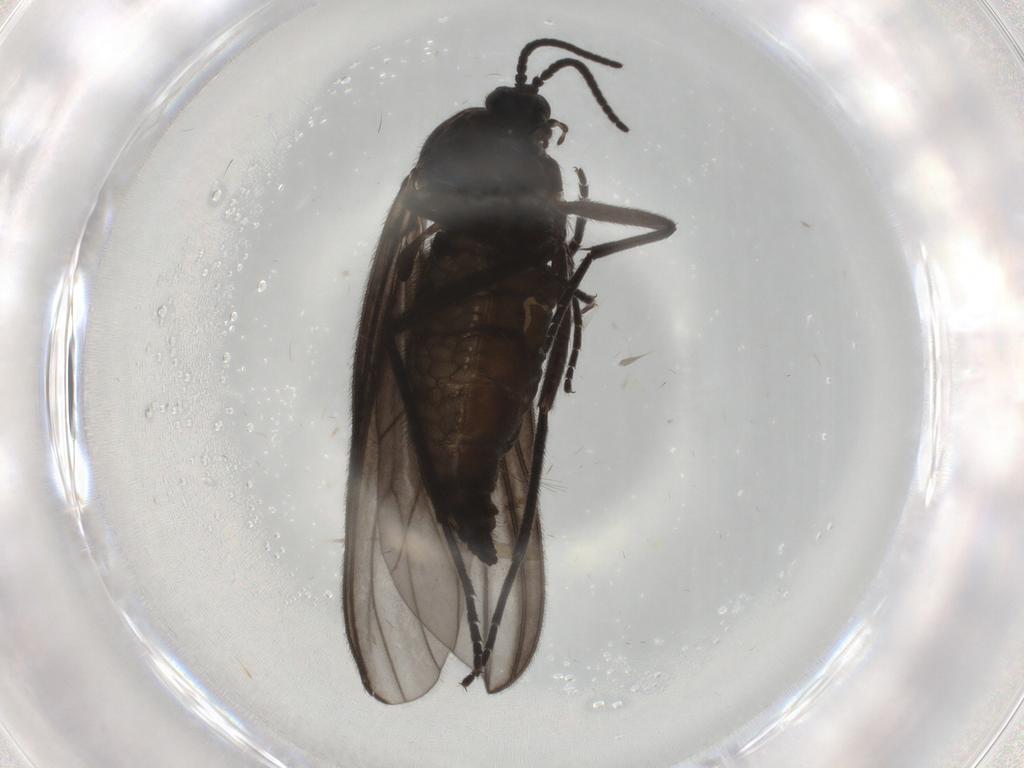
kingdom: Animalia
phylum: Arthropoda
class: Insecta
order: Diptera
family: Sciaridae
